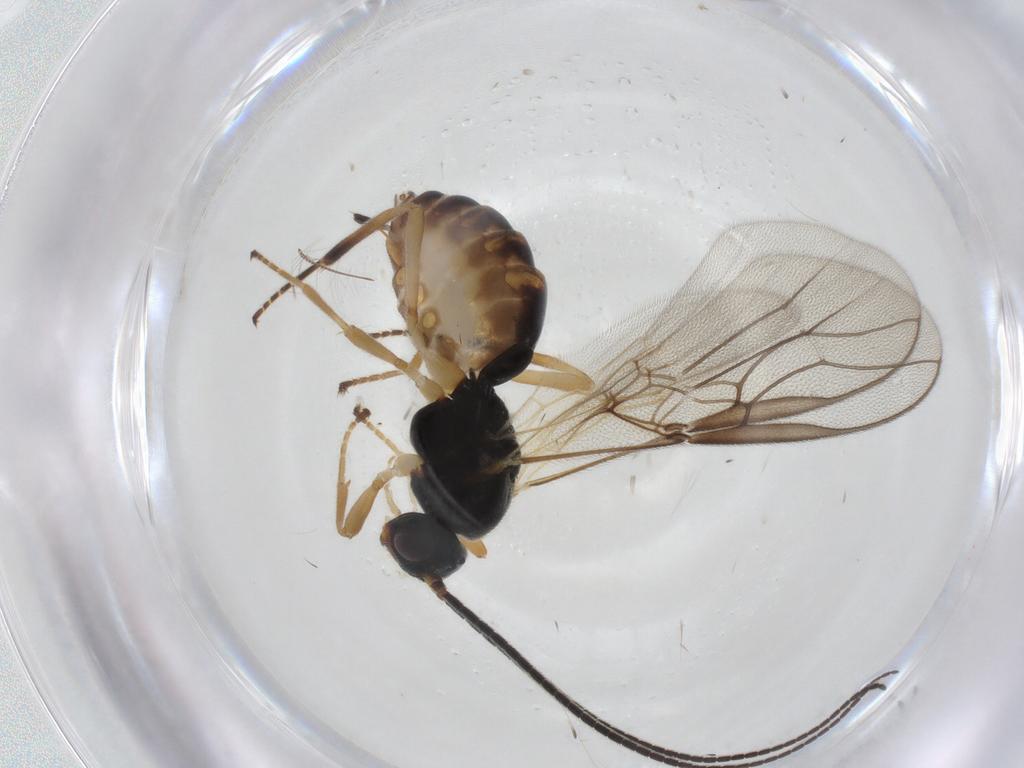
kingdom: Animalia
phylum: Arthropoda
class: Insecta
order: Hymenoptera
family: Braconidae
